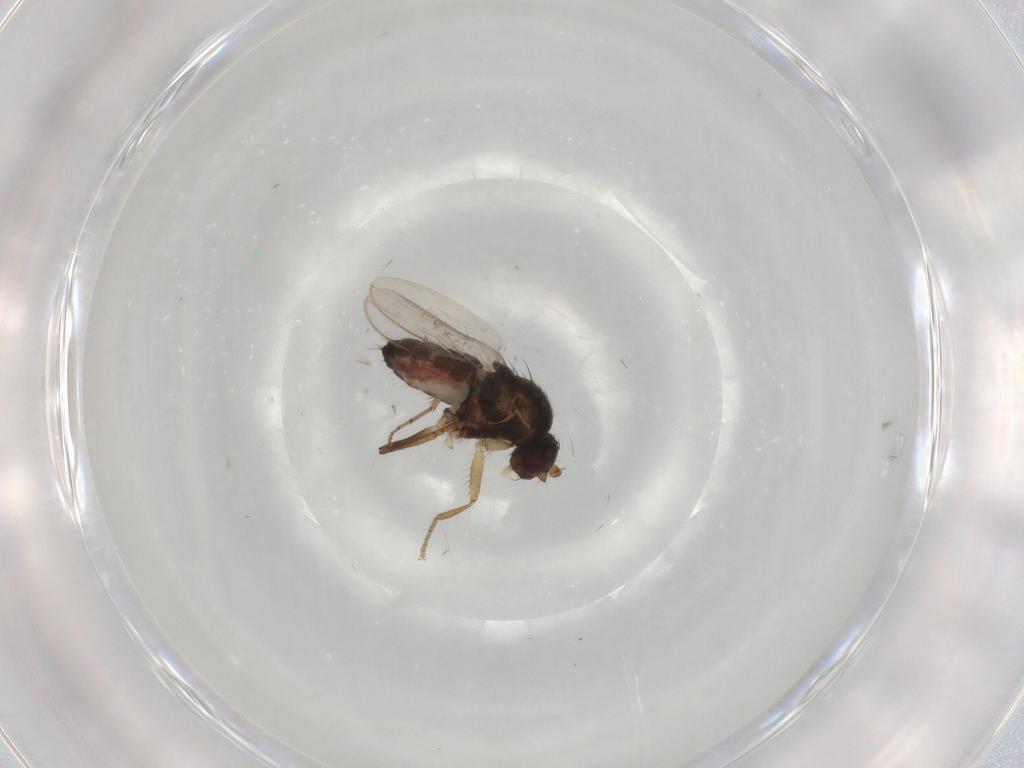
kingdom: Animalia
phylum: Arthropoda
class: Insecta
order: Diptera
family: Sphaeroceridae
